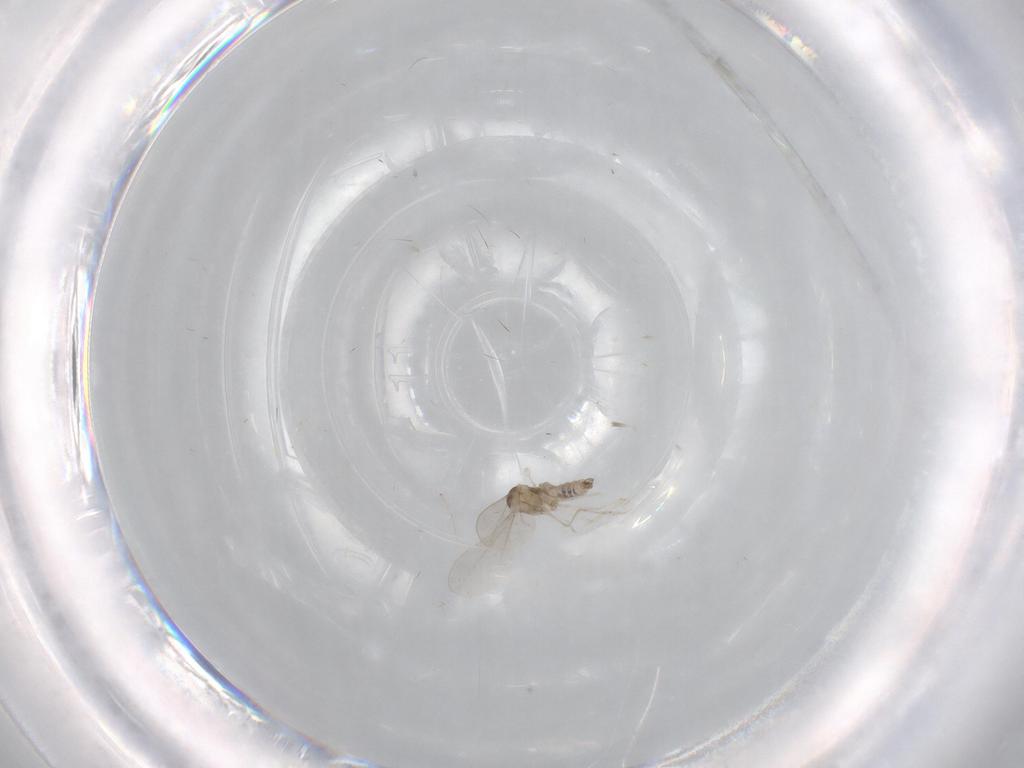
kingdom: Animalia
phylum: Arthropoda
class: Insecta
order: Diptera
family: Cecidomyiidae
